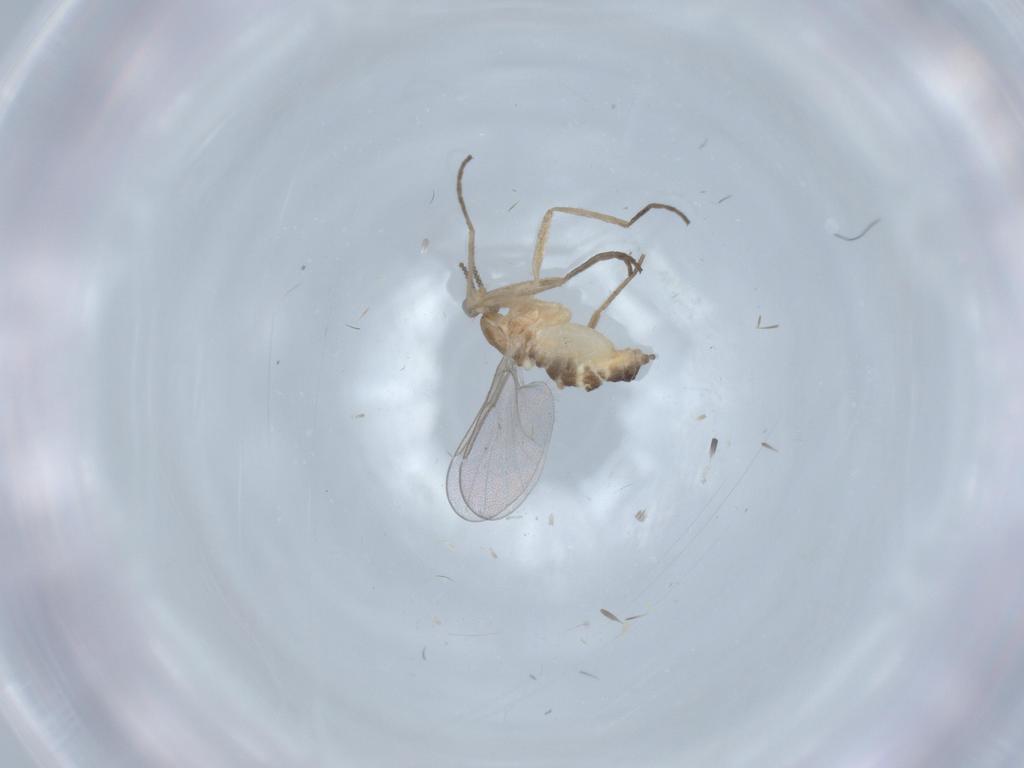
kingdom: Animalia
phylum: Arthropoda
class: Insecta
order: Diptera
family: Cecidomyiidae
